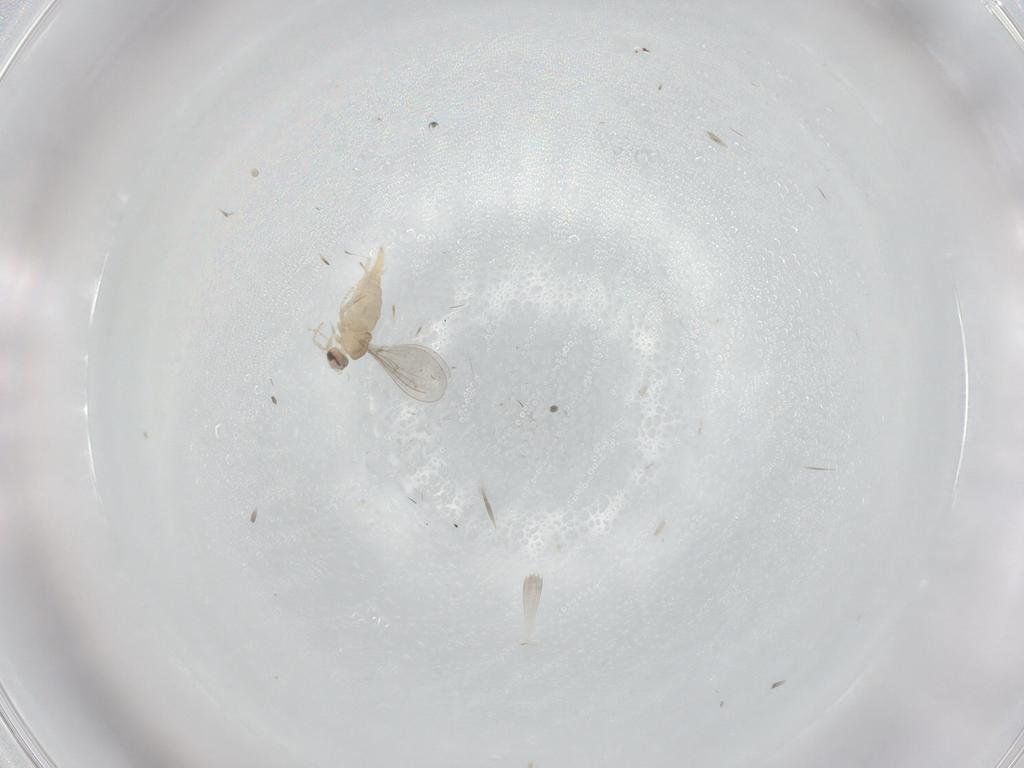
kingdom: Animalia
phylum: Arthropoda
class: Insecta
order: Diptera
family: Cecidomyiidae
